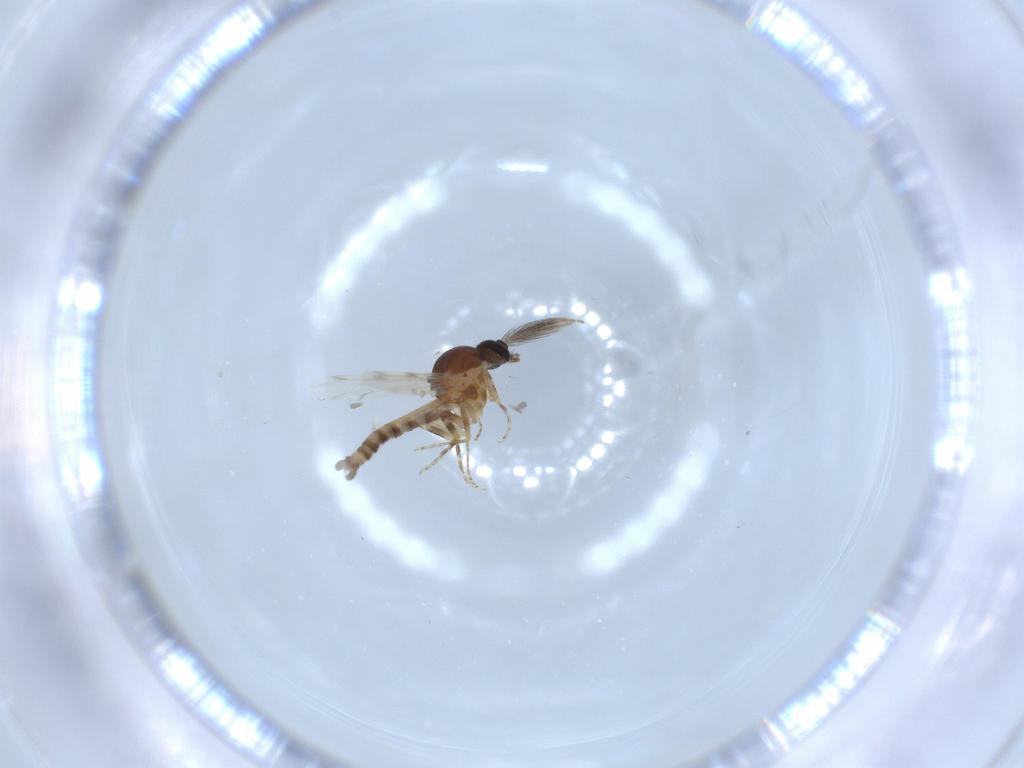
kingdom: Animalia
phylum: Arthropoda
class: Insecta
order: Diptera
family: Ceratopogonidae
